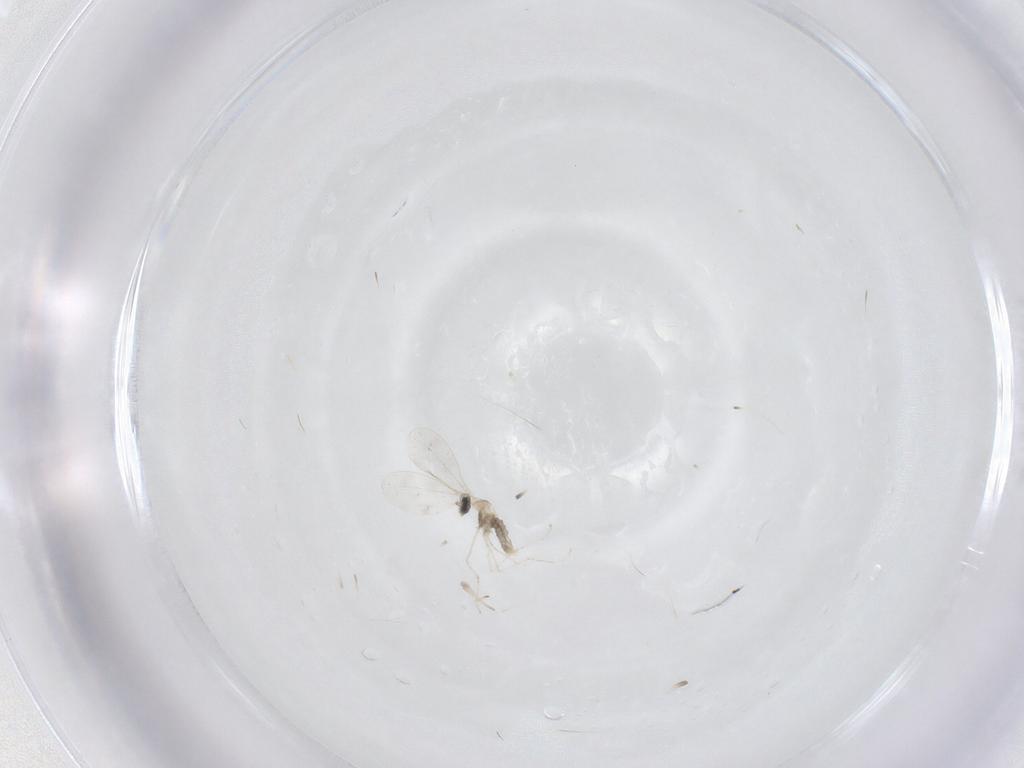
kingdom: Animalia
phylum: Arthropoda
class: Insecta
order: Diptera
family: Cecidomyiidae
